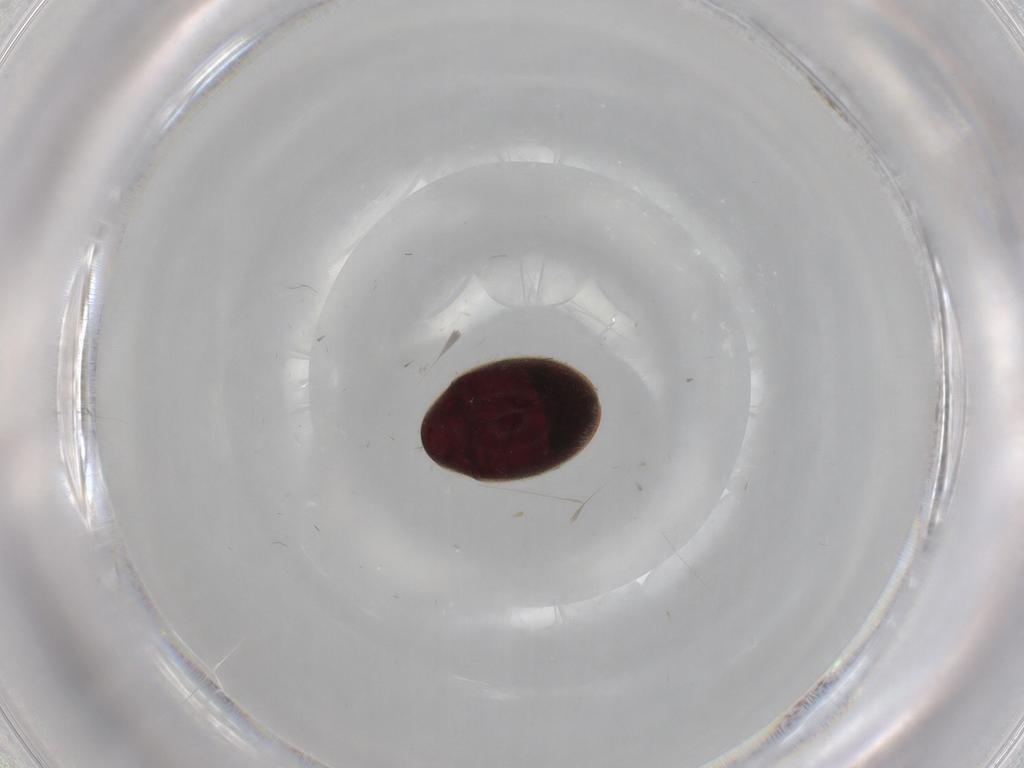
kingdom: Animalia
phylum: Arthropoda
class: Insecta
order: Coleoptera
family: Ptinidae
